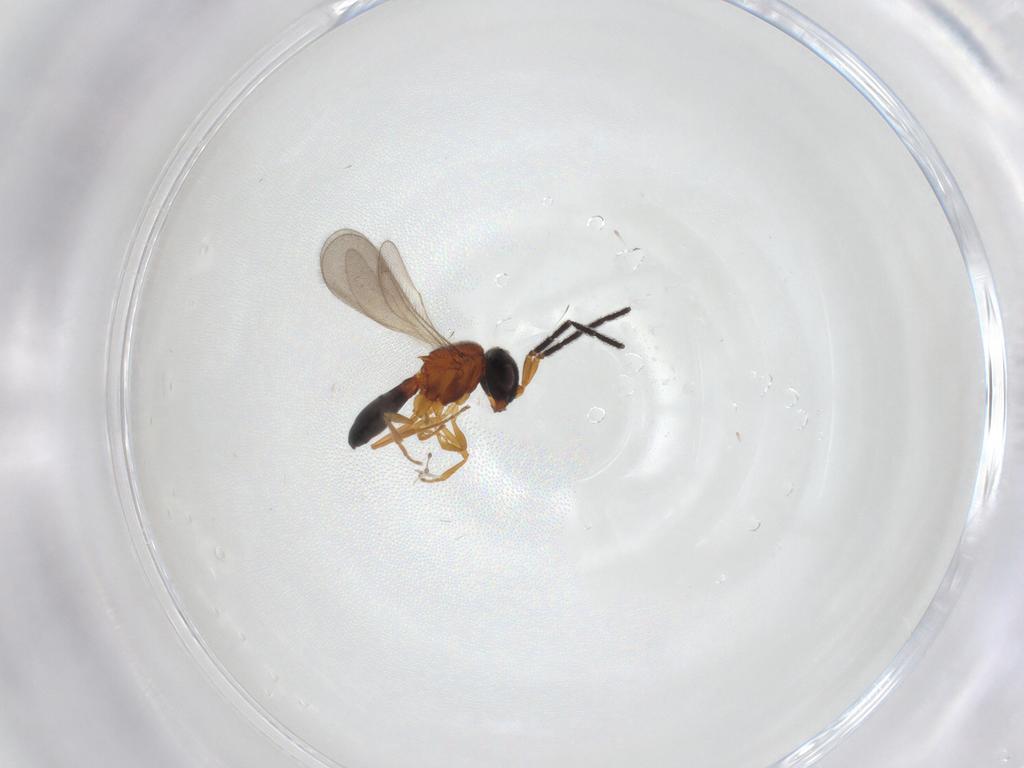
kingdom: Animalia
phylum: Arthropoda
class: Insecta
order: Hymenoptera
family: Scelionidae
